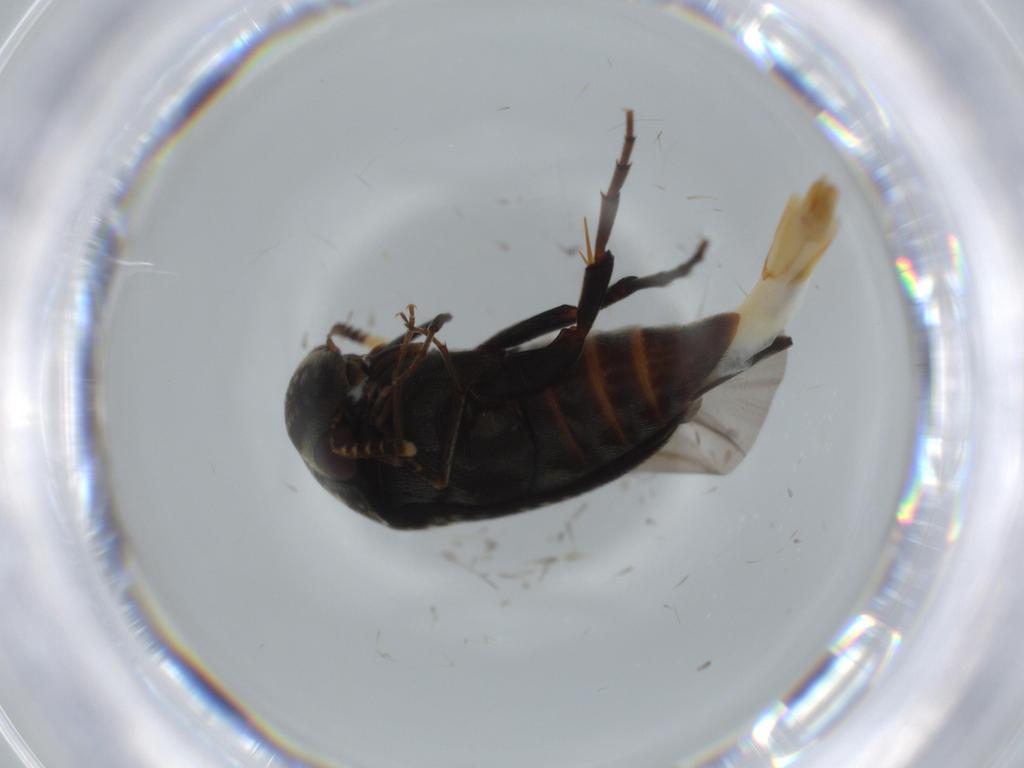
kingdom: Animalia
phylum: Arthropoda
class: Insecta
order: Coleoptera
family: Mordellidae
